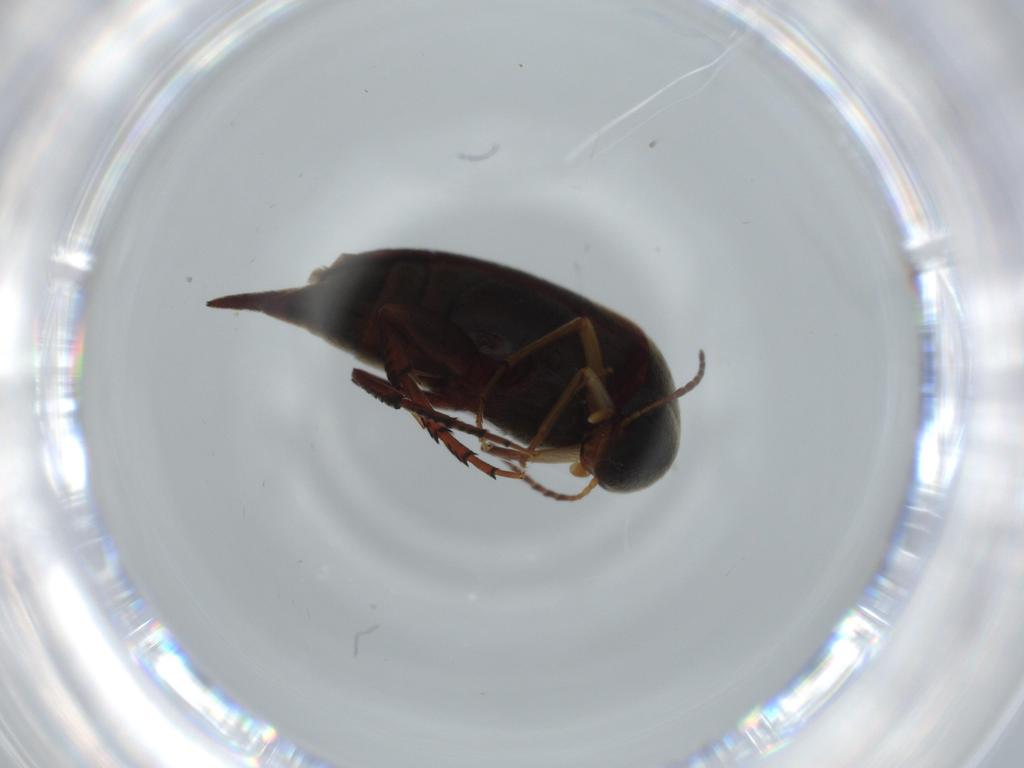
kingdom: Animalia
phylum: Arthropoda
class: Insecta
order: Coleoptera
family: Mordellidae
